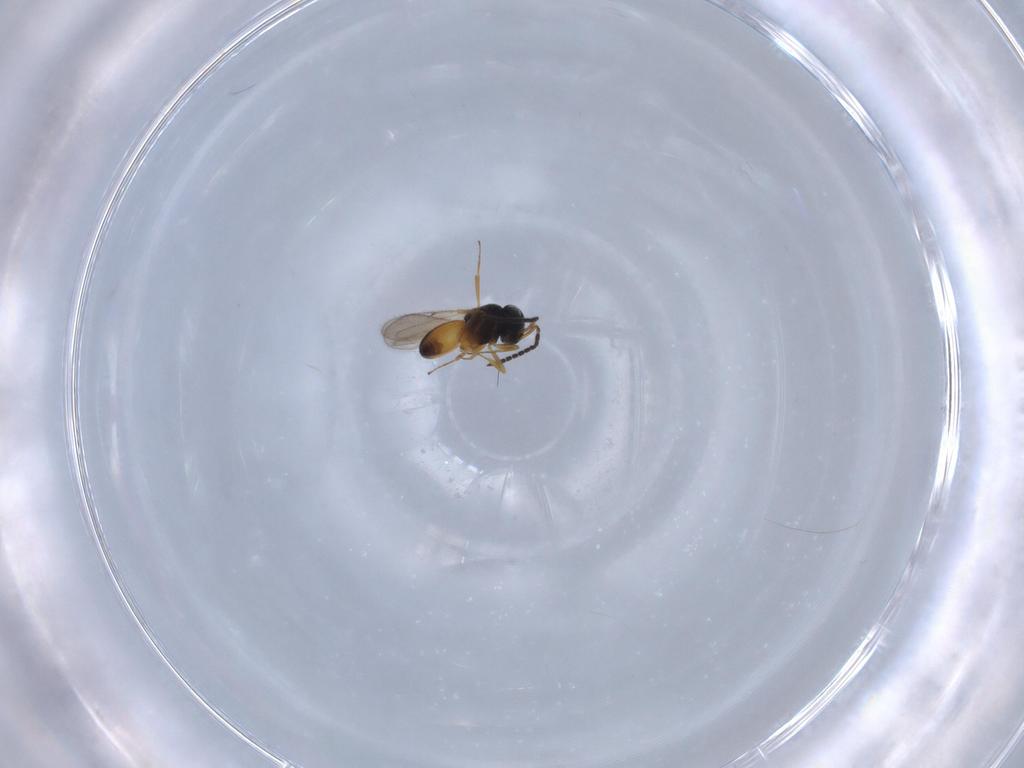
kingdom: Animalia
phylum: Arthropoda
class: Insecta
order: Hymenoptera
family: Scelionidae
